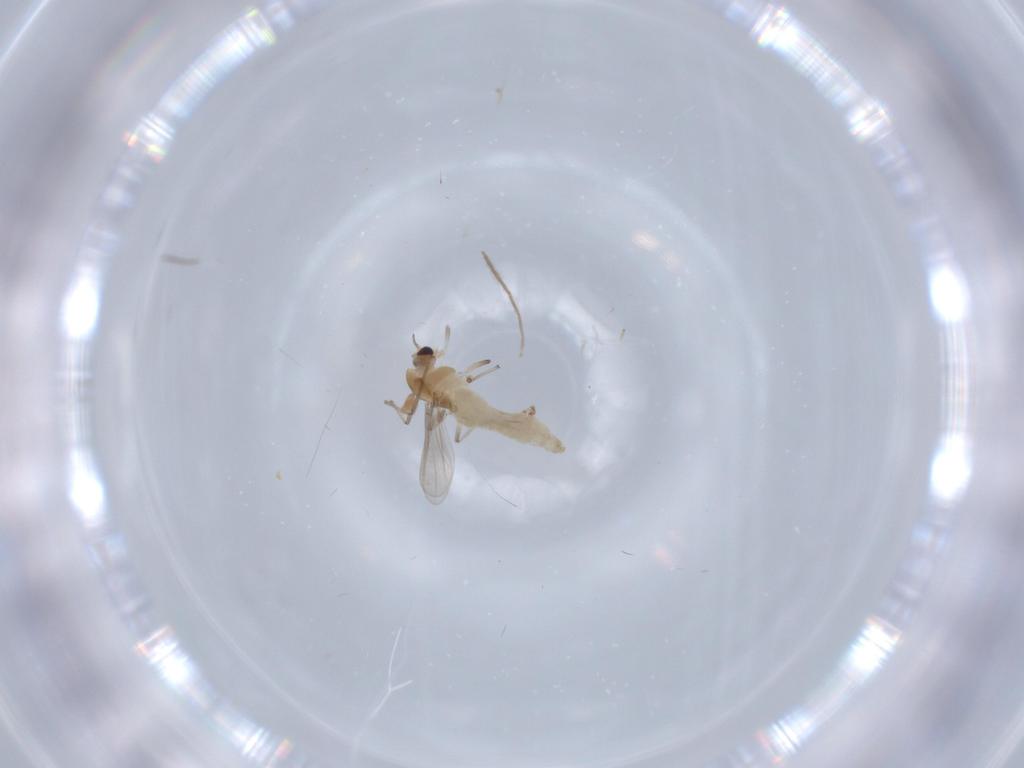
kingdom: Animalia
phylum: Arthropoda
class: Insecta
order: Diptera
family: Chironomidae
